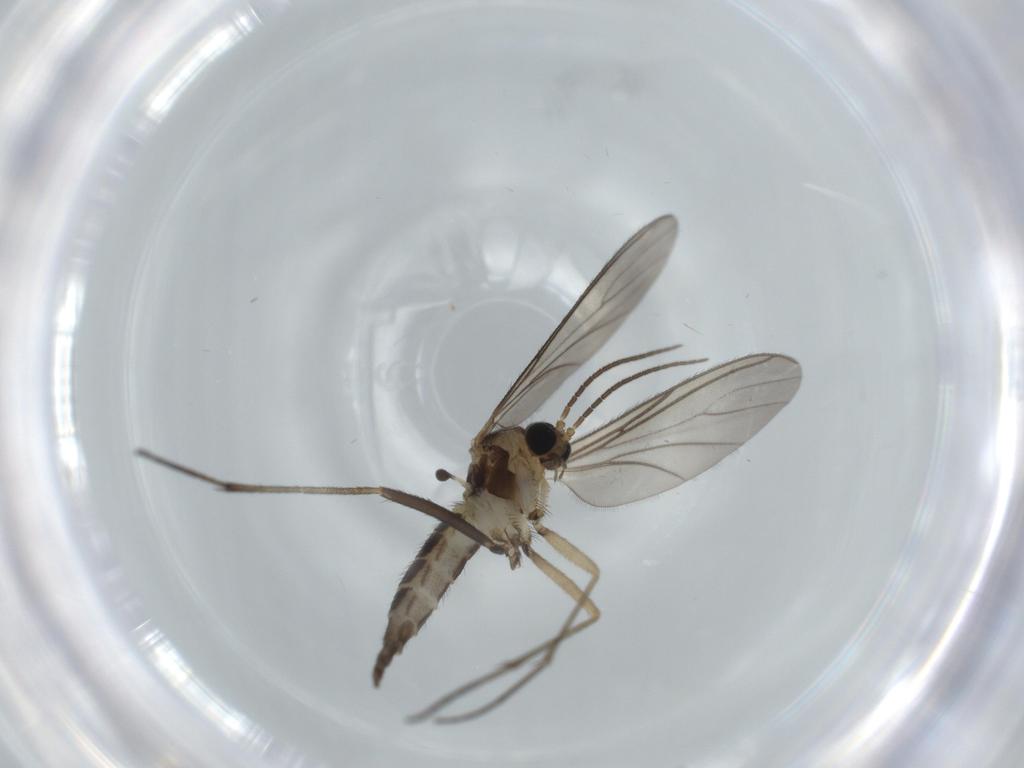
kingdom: Animalia
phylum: Arthropoda
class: Insecta
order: Diptera
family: Sciaridae
